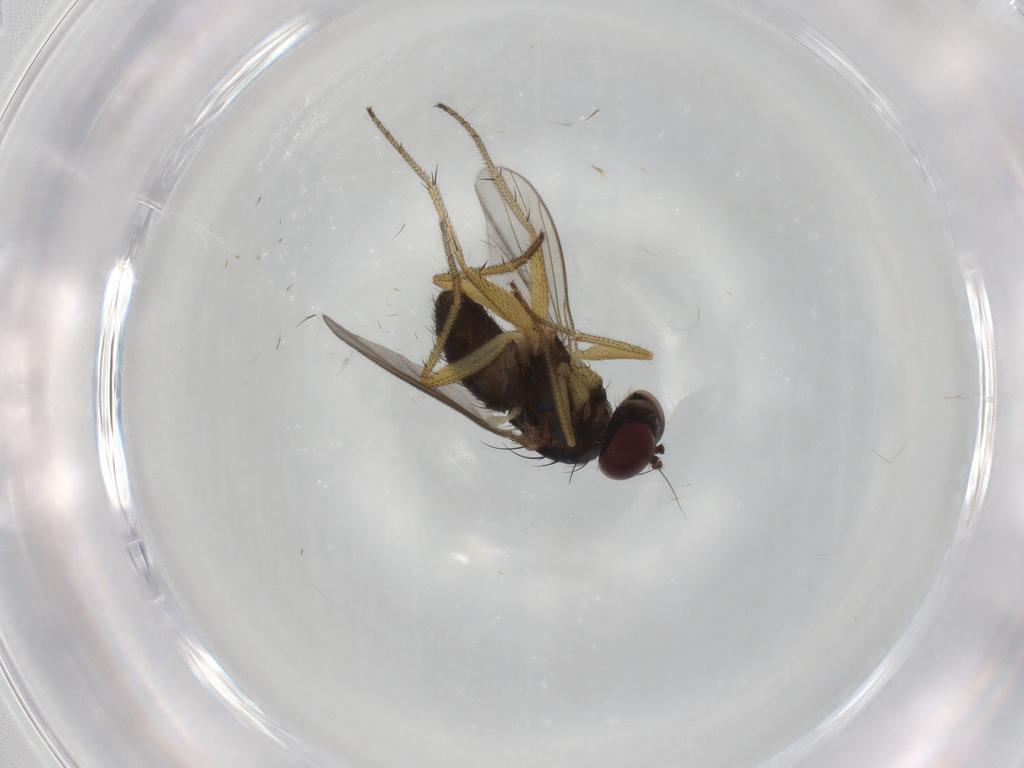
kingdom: Animalia
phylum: Arthropoda
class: Insecta
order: Diptera
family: Dolichopodidae
